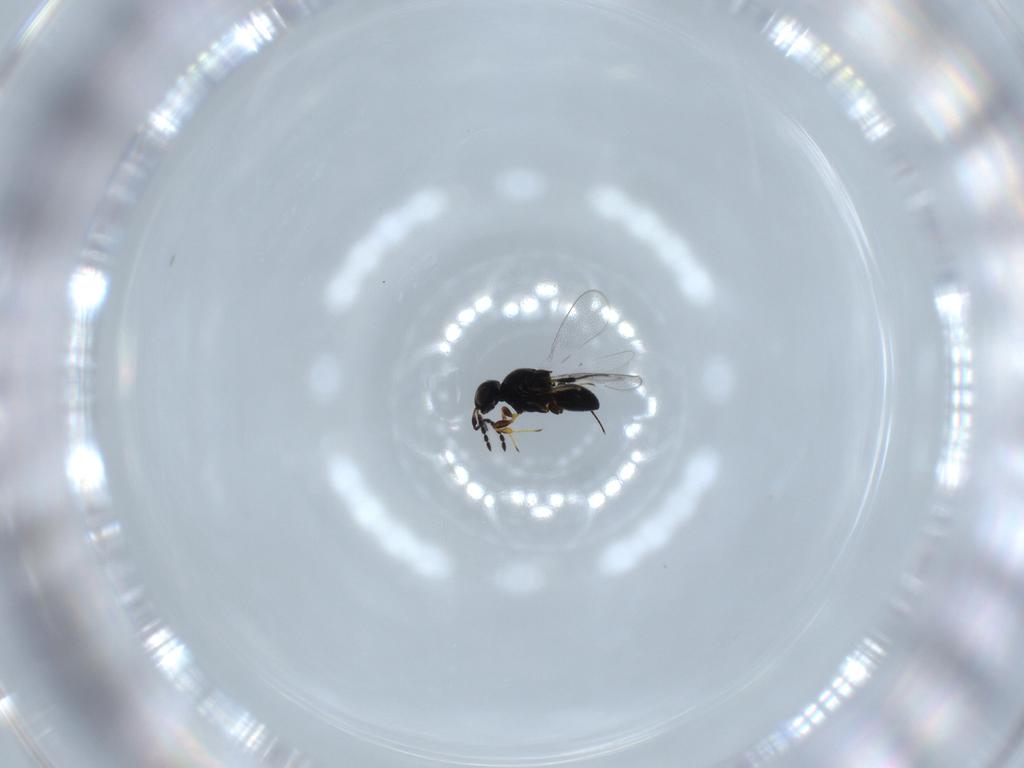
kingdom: Animalia
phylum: Arthropoda
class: Insecta
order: Hymenoptera
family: Platygastridae
